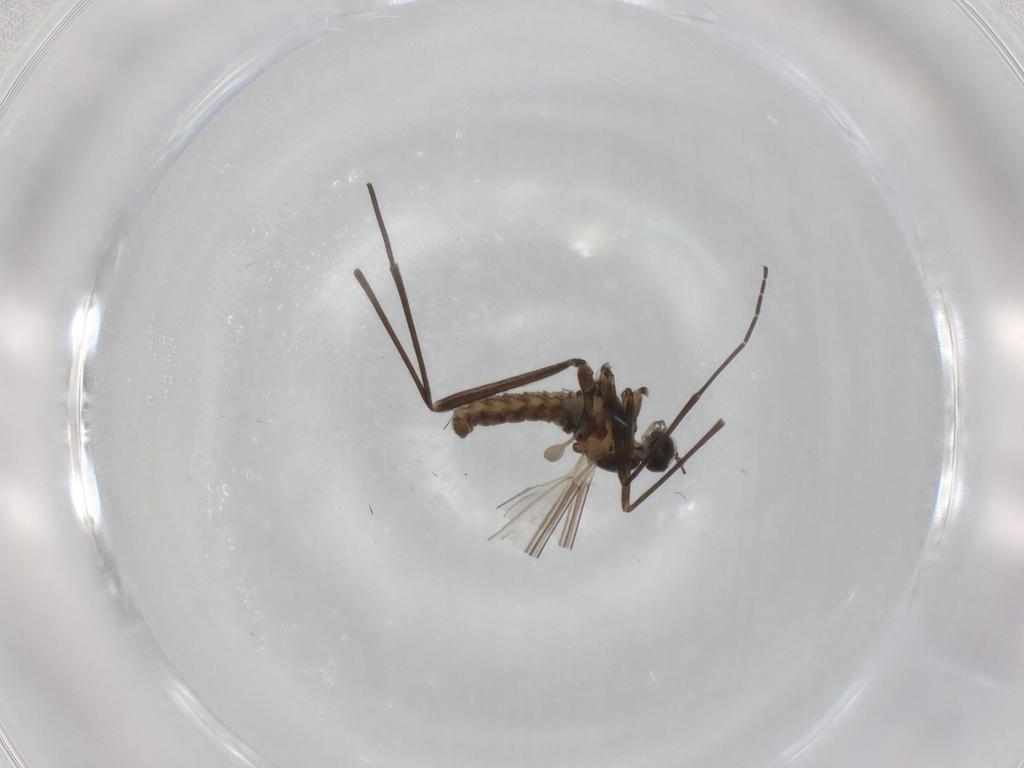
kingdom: Animalia
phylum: Arthropoda
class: Insecta
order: Diptera
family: Cecidomyiidae
